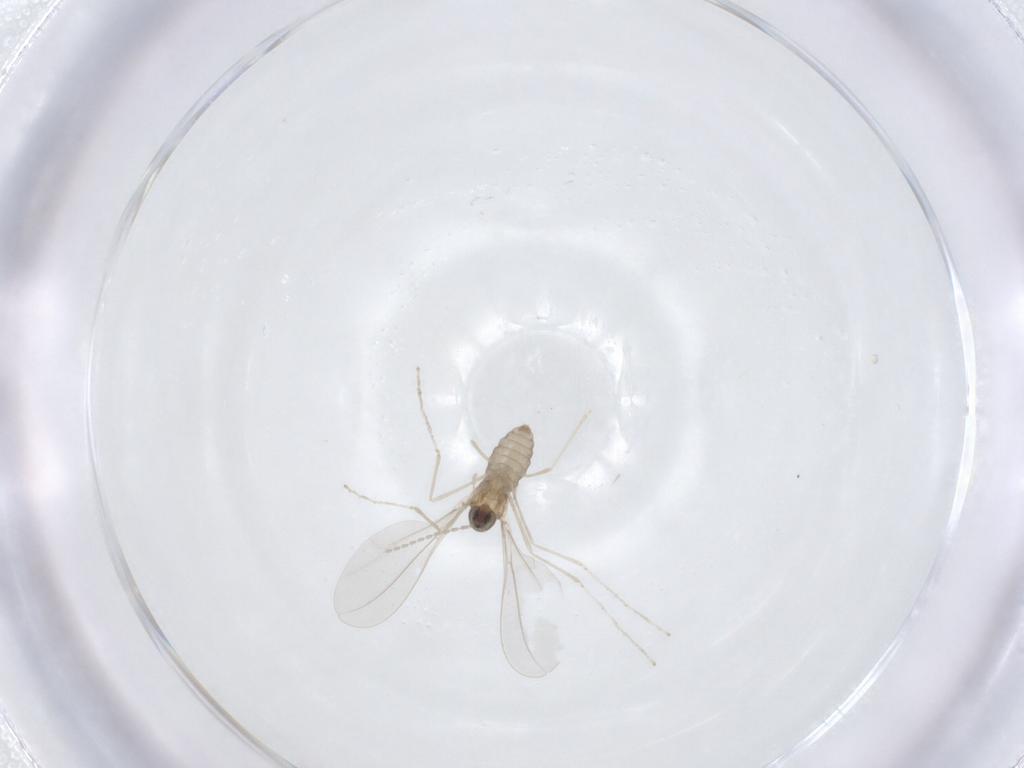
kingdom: Animalia
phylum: Arthropoda
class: Insecta
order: Diptera
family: Cecidomyiidae
